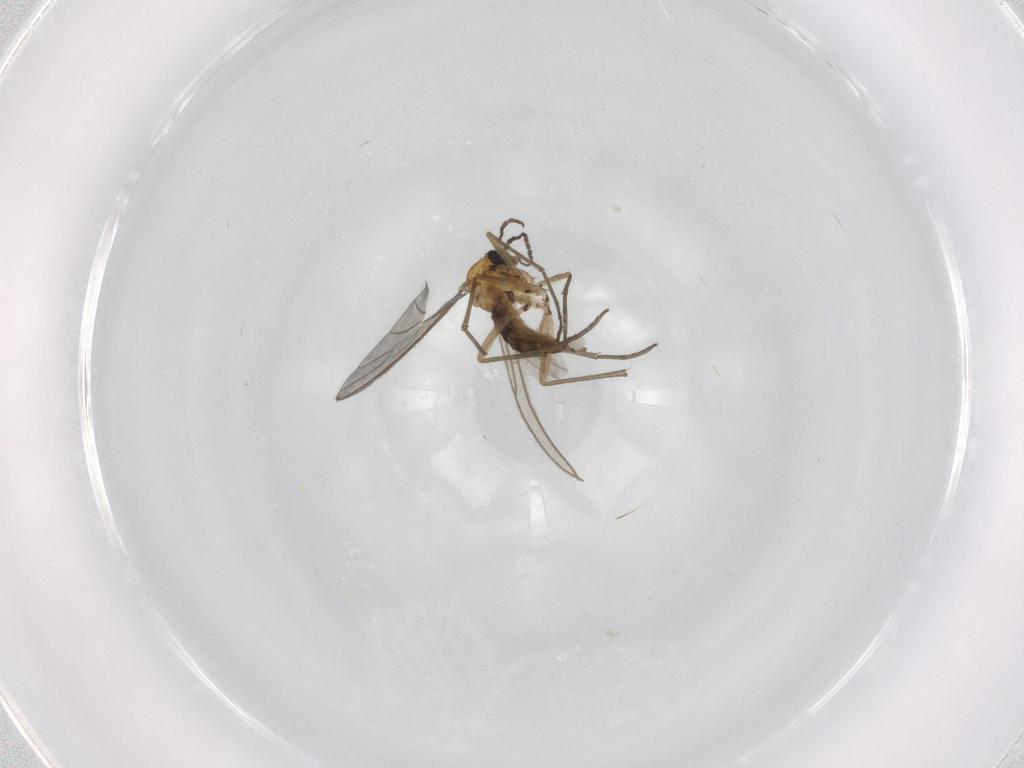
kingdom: Animalia
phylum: Arthropoda
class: Insecta
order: Diptera
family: Sciaridae
